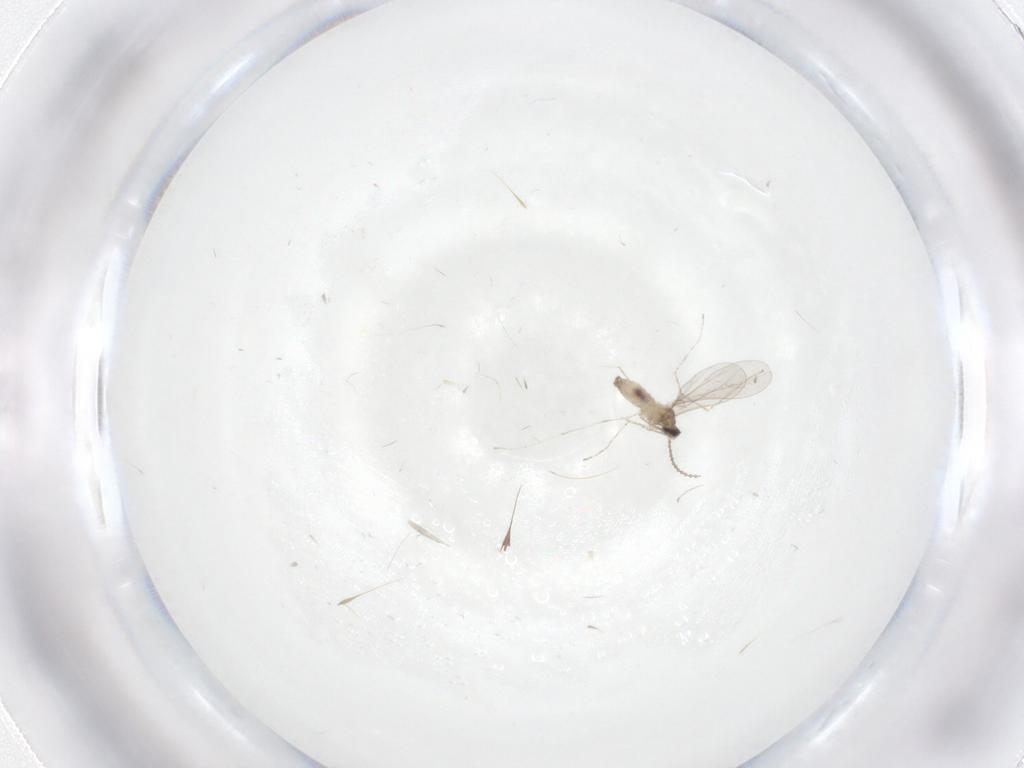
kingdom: Animalia
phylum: Arthropoda
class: Insecta
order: Diptera
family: Cecidomyiidae
